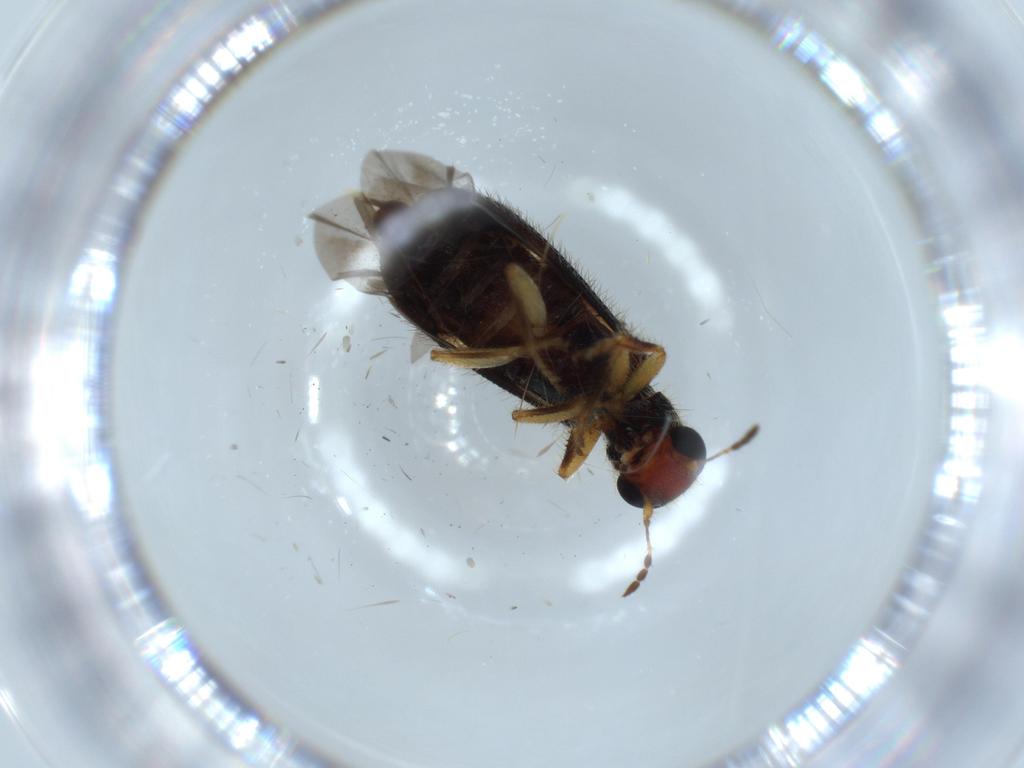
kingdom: Animalia
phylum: Arthropoda
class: Insecta
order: Coleoptera
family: Cleridae
